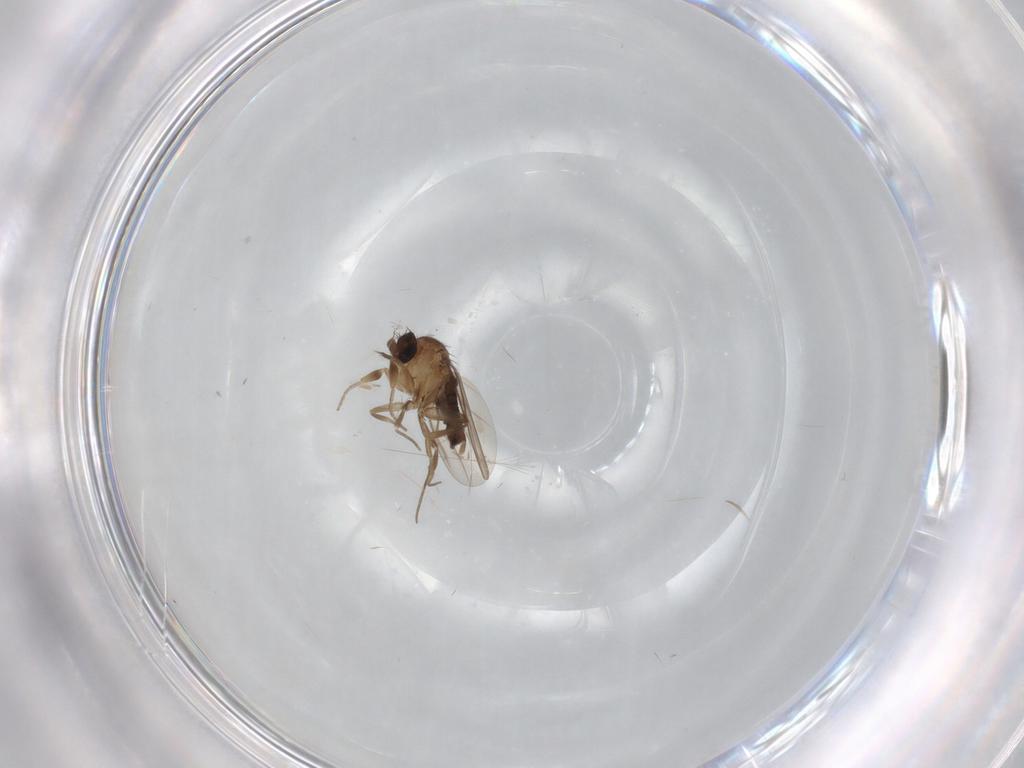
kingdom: Animalia
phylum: Arthropoda
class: Insecta
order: Diptera
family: Phoridae
